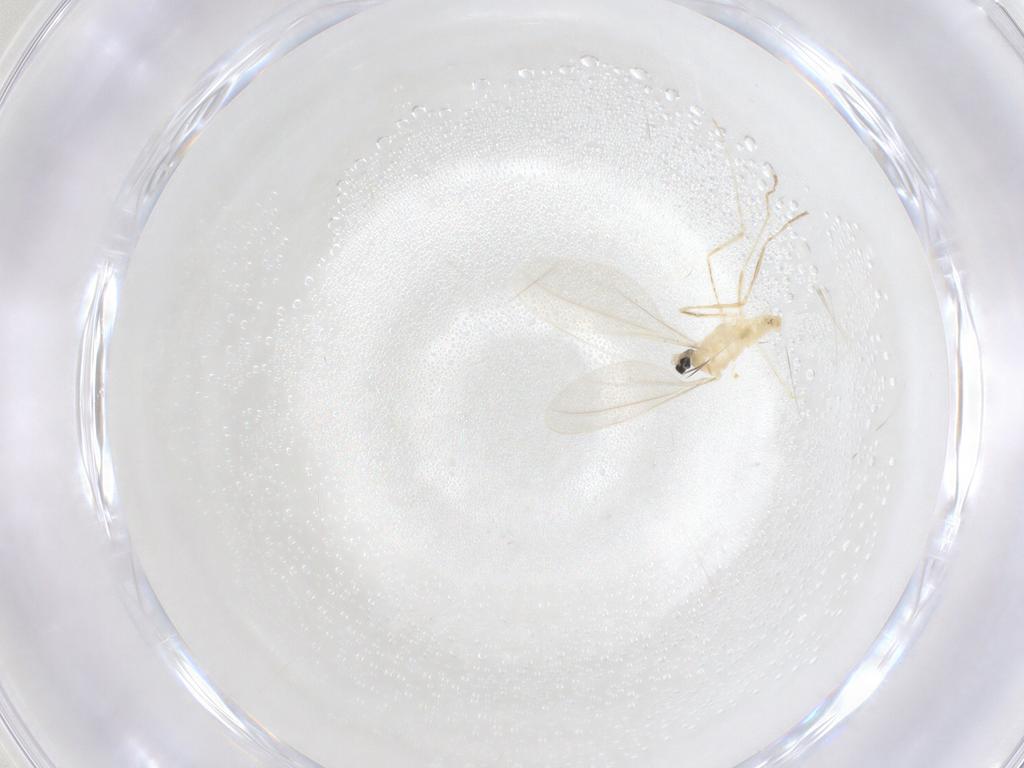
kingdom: Animalia
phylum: Arthropoda
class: Insecta
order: Diptera
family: Cecidomyiidae
